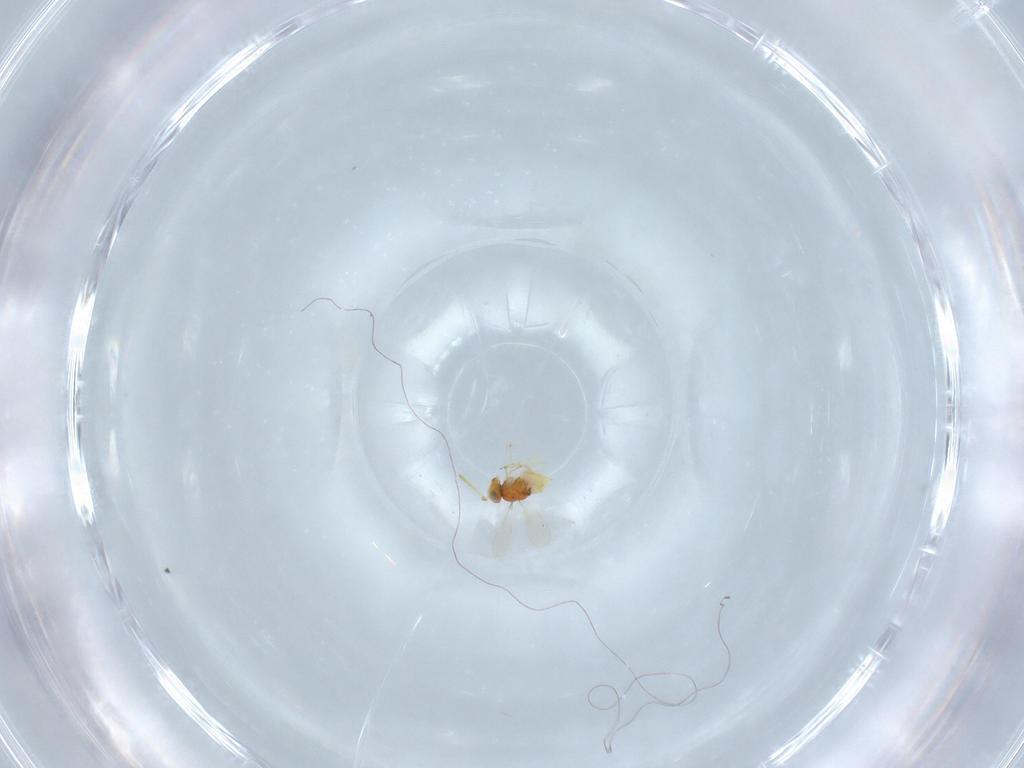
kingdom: Animalia
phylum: Arthropoda
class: Insecta
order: Hymenoptera
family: Aphelinidae
